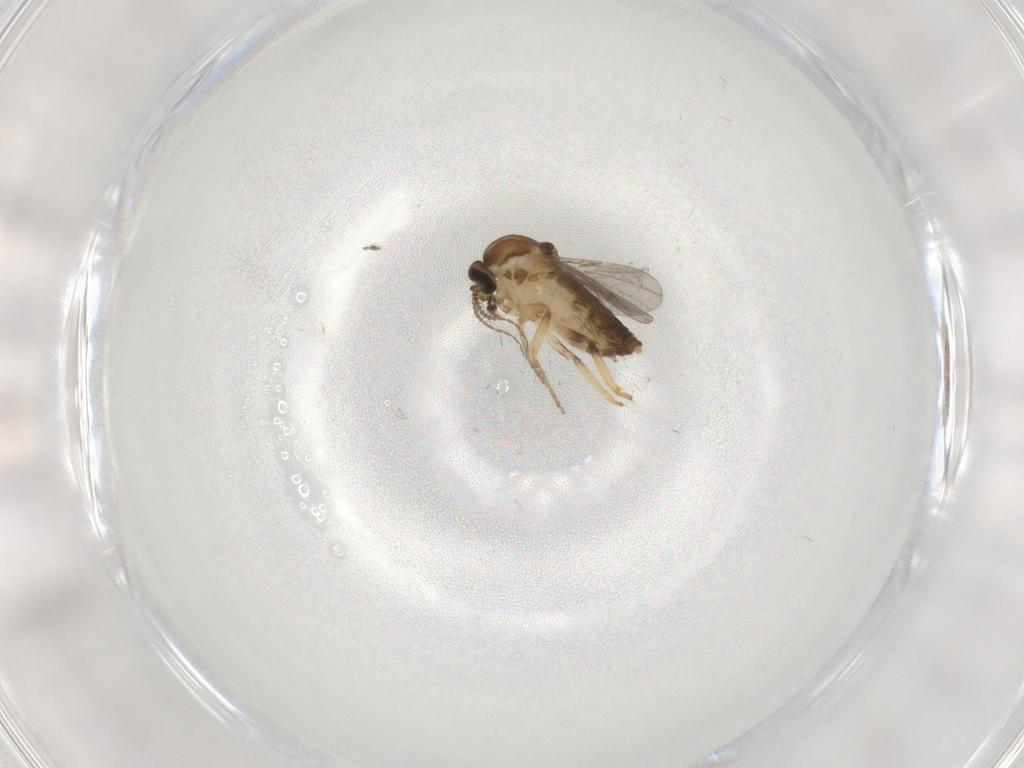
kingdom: Animalia
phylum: Arthropoda
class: Insecta
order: Diptera
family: Ceratopogonidae
